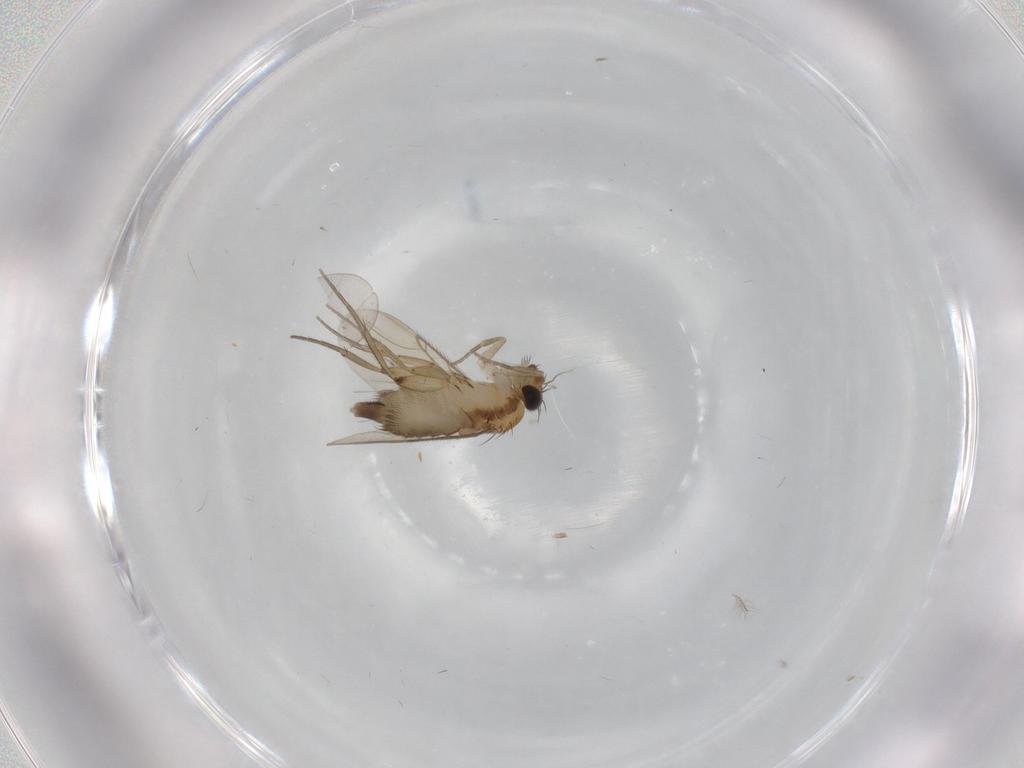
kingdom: Animalia
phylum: Arthropoda
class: Insecta
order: Diptera
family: Phoridae
